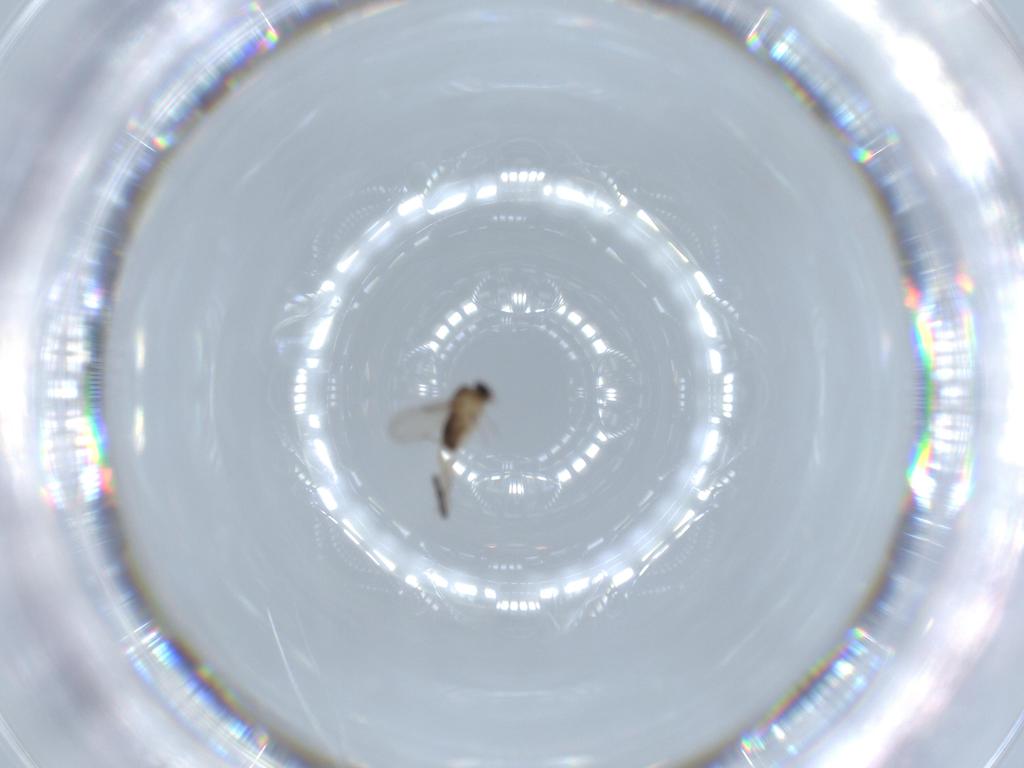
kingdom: Animalia
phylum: Arthropoda
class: Insecta
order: Diptera
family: Phoridae
